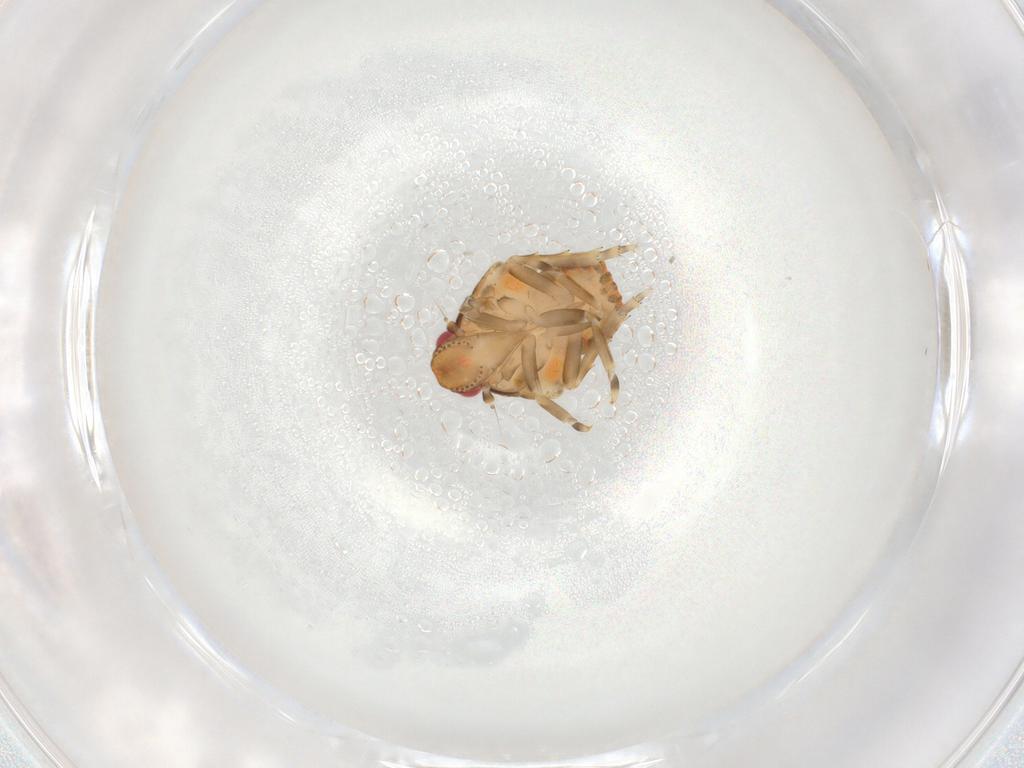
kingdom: Animalia
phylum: Arthropoda
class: Insecta
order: Hemiptera
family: Flatidae
